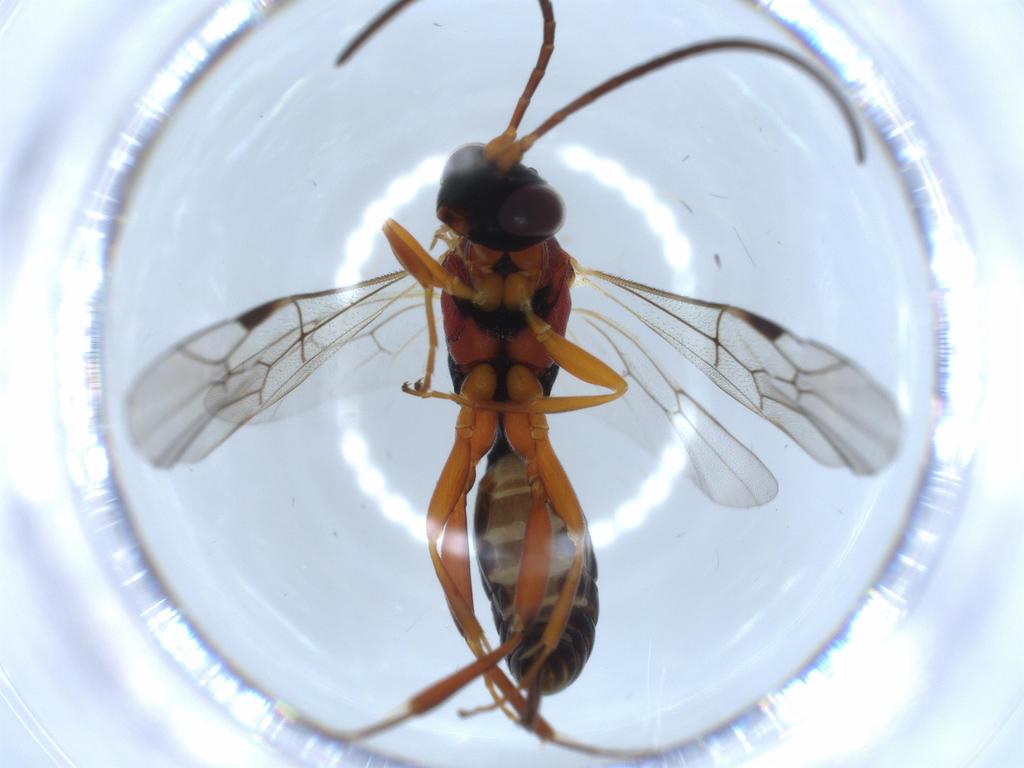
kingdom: Animalia
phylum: Arthropoda
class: Insecta
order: Hymenoptera
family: Ichneumonidae
